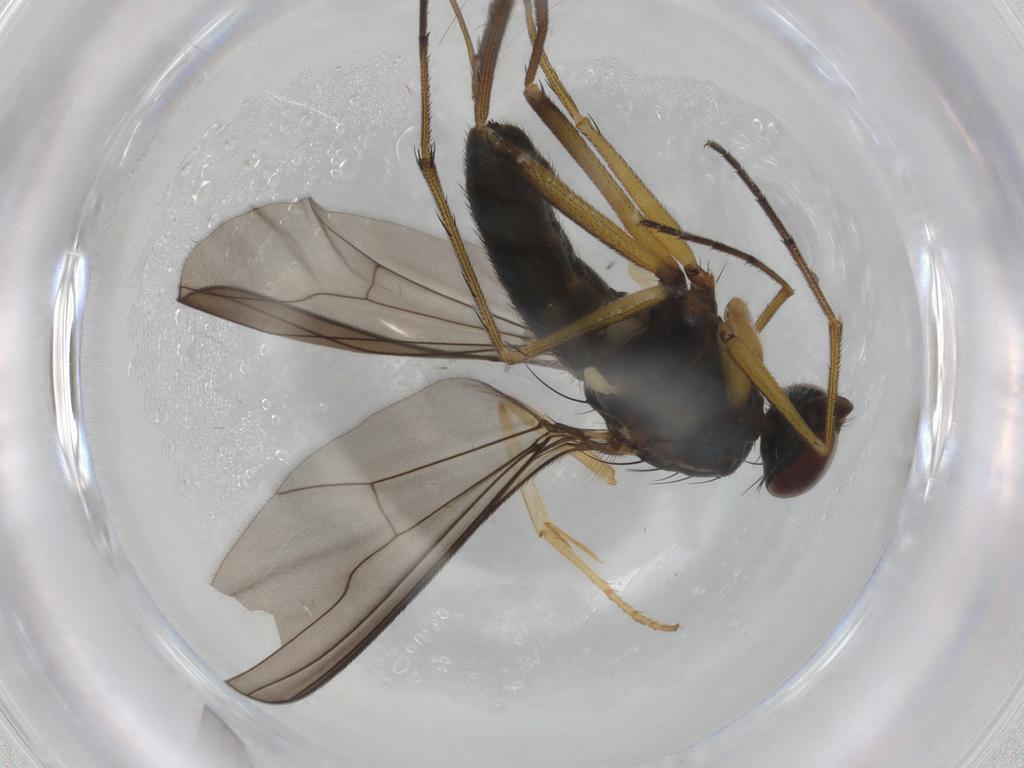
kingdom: Animalia
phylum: Arthropoda
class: Insecta
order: Diptera
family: Dolichopodidae
